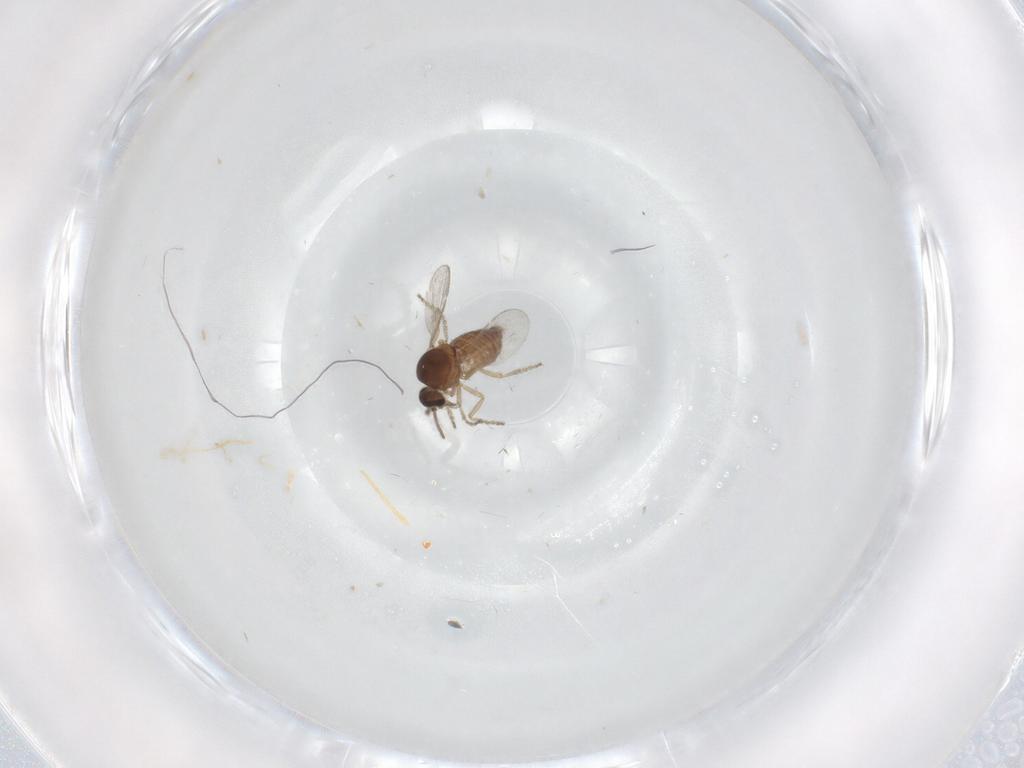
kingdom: Animalia
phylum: Arthropoda
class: Insecta
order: Diptera
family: Ceratopogonidae
